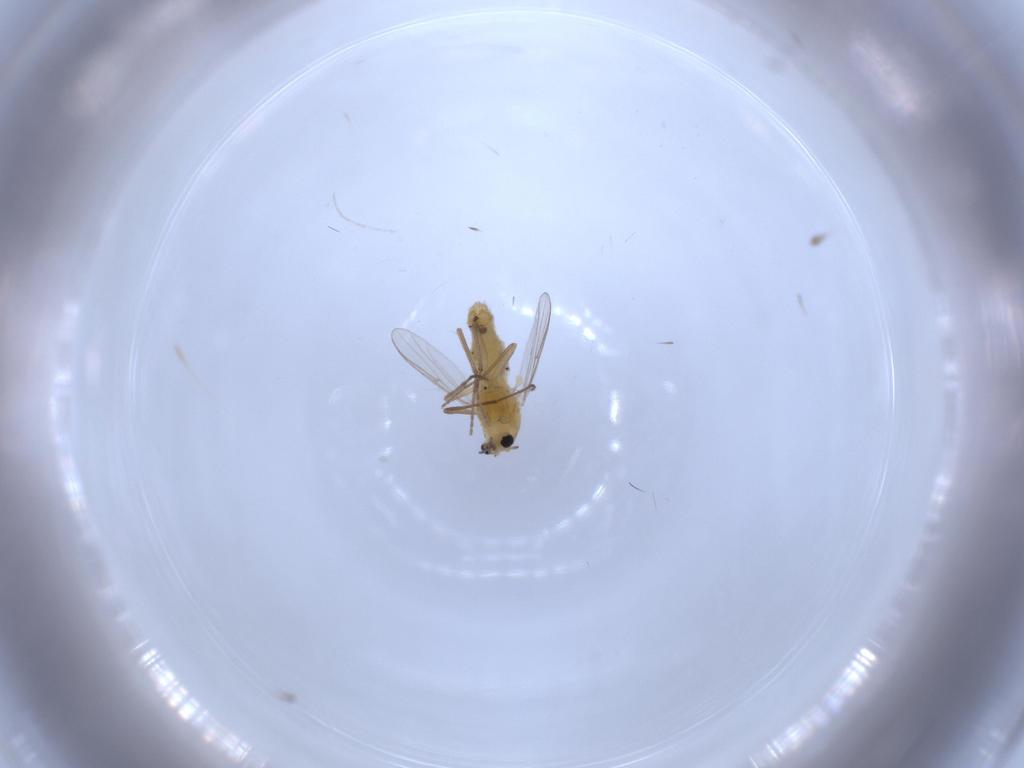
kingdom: Animalia
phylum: Arthropoda
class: Insecta
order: Diptera
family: Chironomidae
